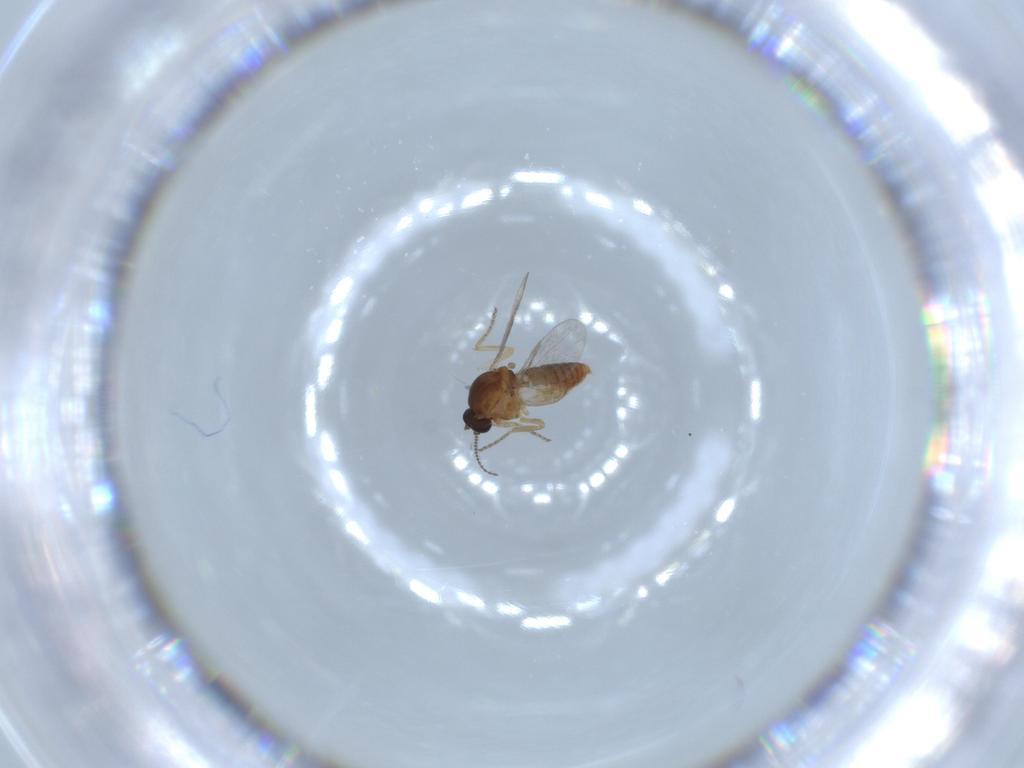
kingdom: Animalia
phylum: Arthropoda
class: Insecta
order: Diptera
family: Ceratopogonidae
